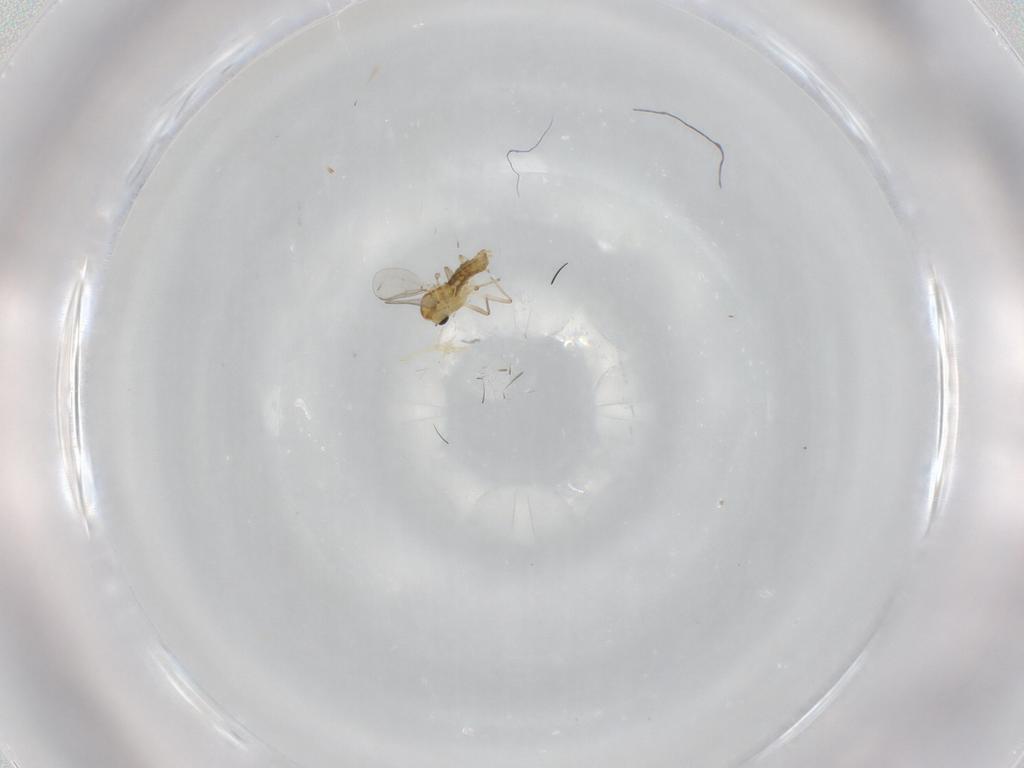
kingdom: Animalia
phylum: Arthropoda
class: Insecta
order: Diptera
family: Chironomidae
